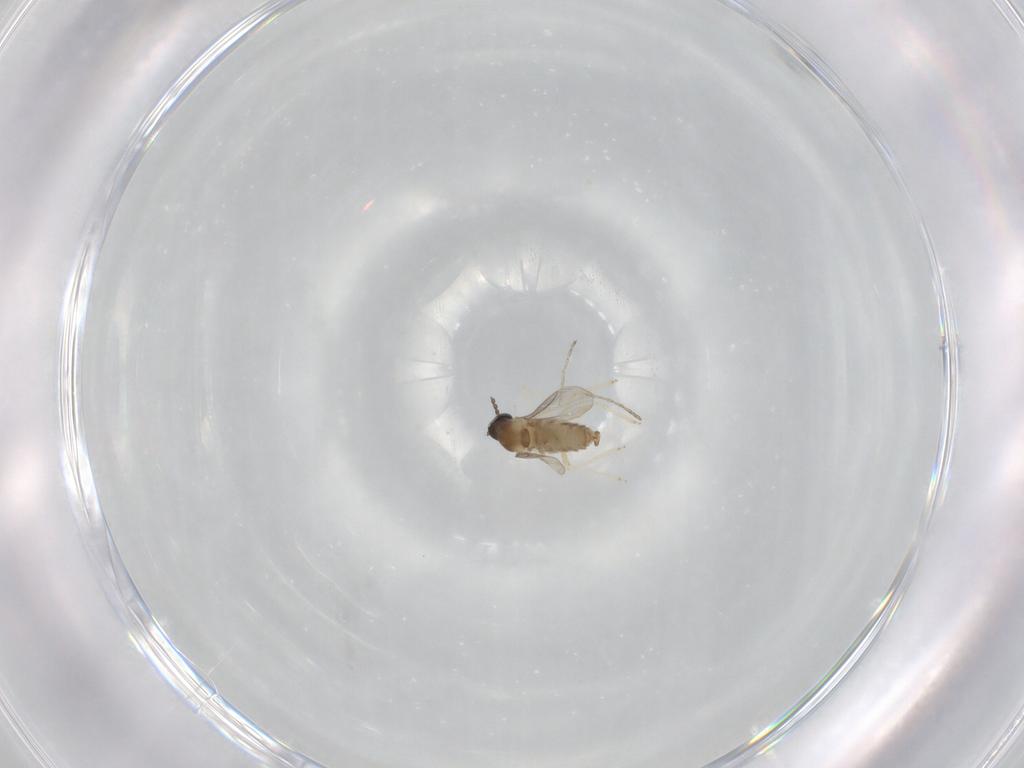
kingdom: Animalia
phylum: Arthropoda
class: Insecta
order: Diptera
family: Cecidomyiidae
